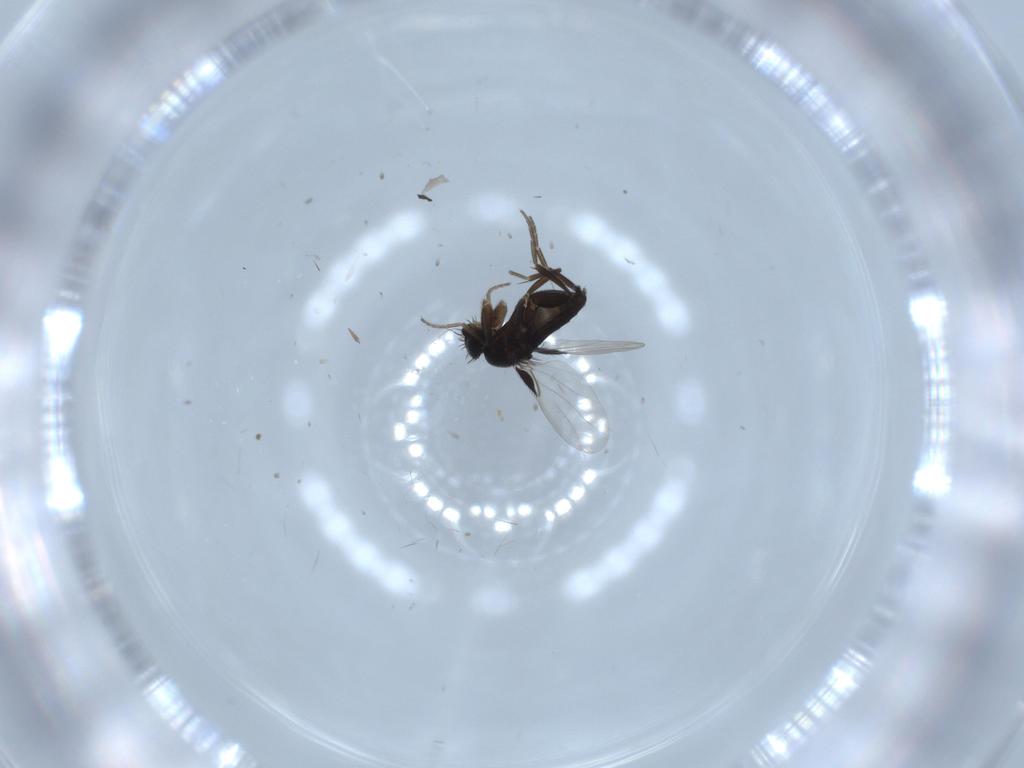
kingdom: Animalia
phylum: Arthropoda
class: Insecta
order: Diptera
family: Phoridae
